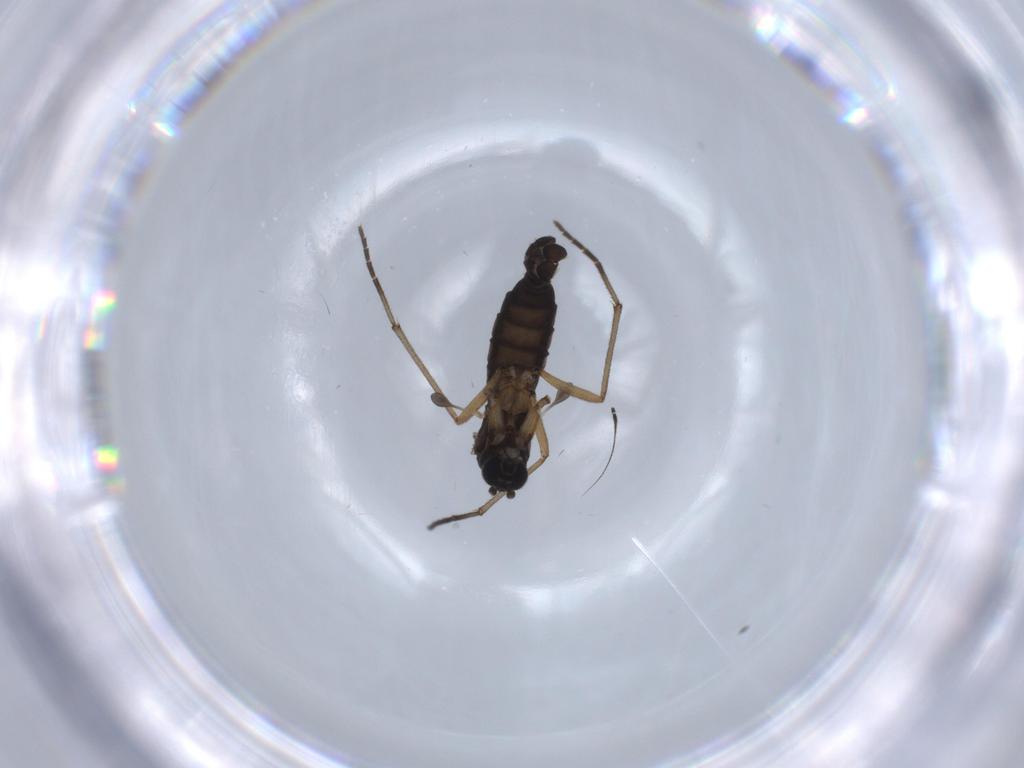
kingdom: Animalia
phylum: Arthropoda
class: Insecta
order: Diptera
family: Sciaridae
